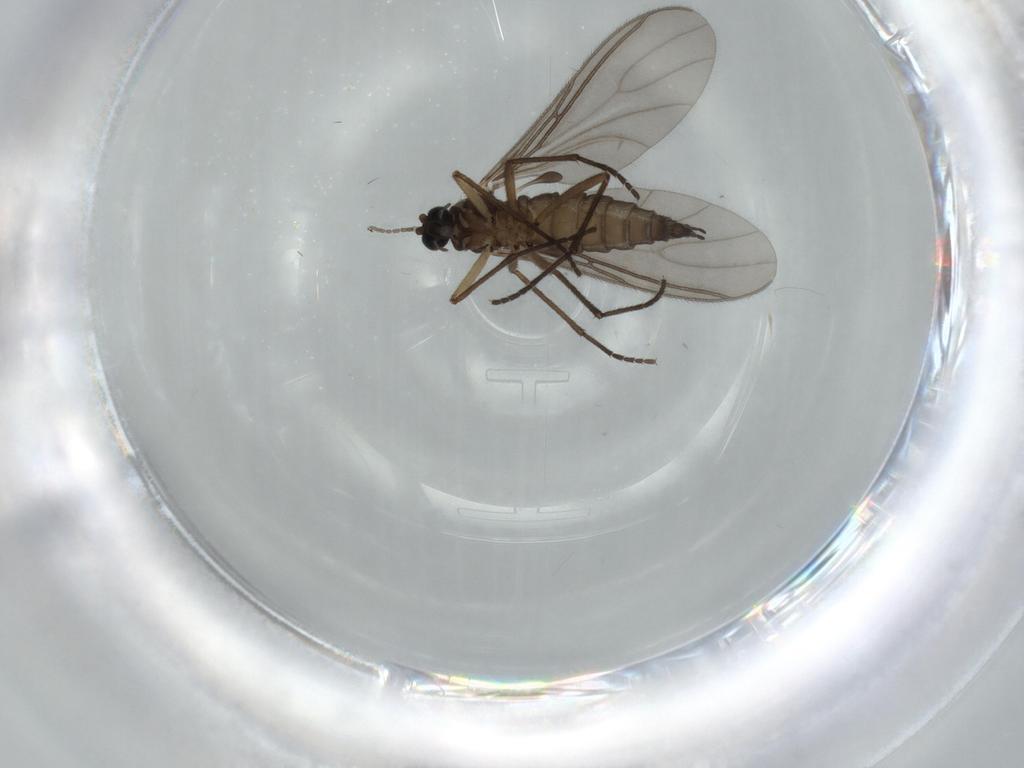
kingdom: Animalia
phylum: Arthropoda
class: Insecta
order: Diptera
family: Sciaridae
